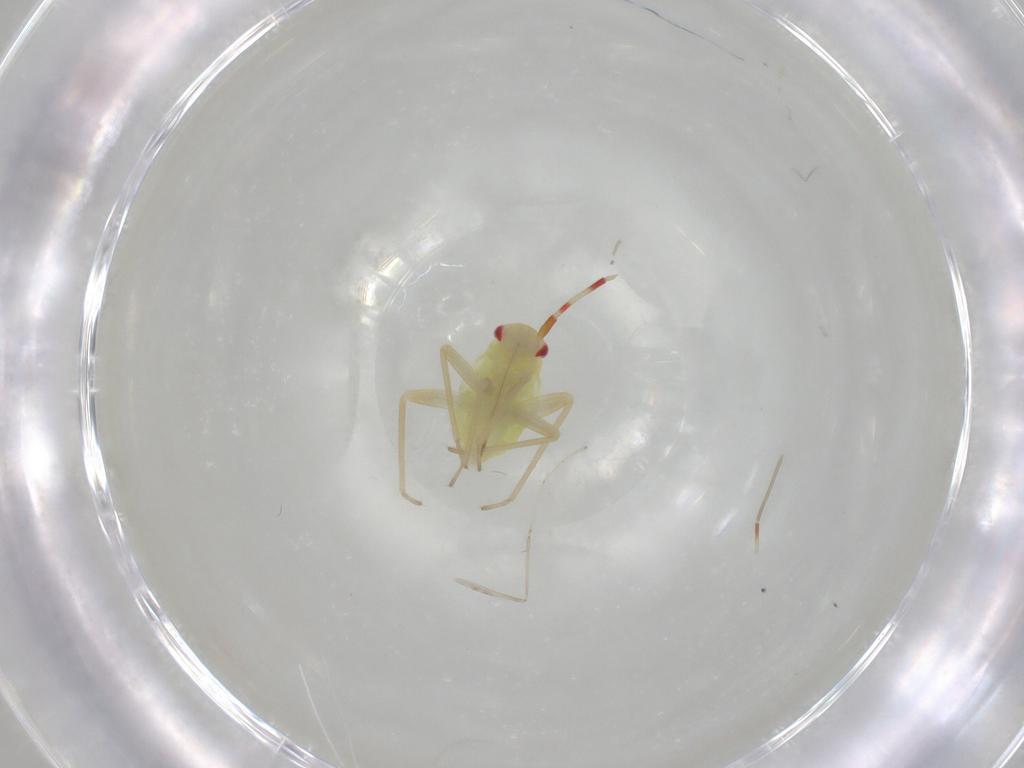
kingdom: Animalia
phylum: Arthropoda
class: Insecta
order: Hemiptera
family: Miridae
